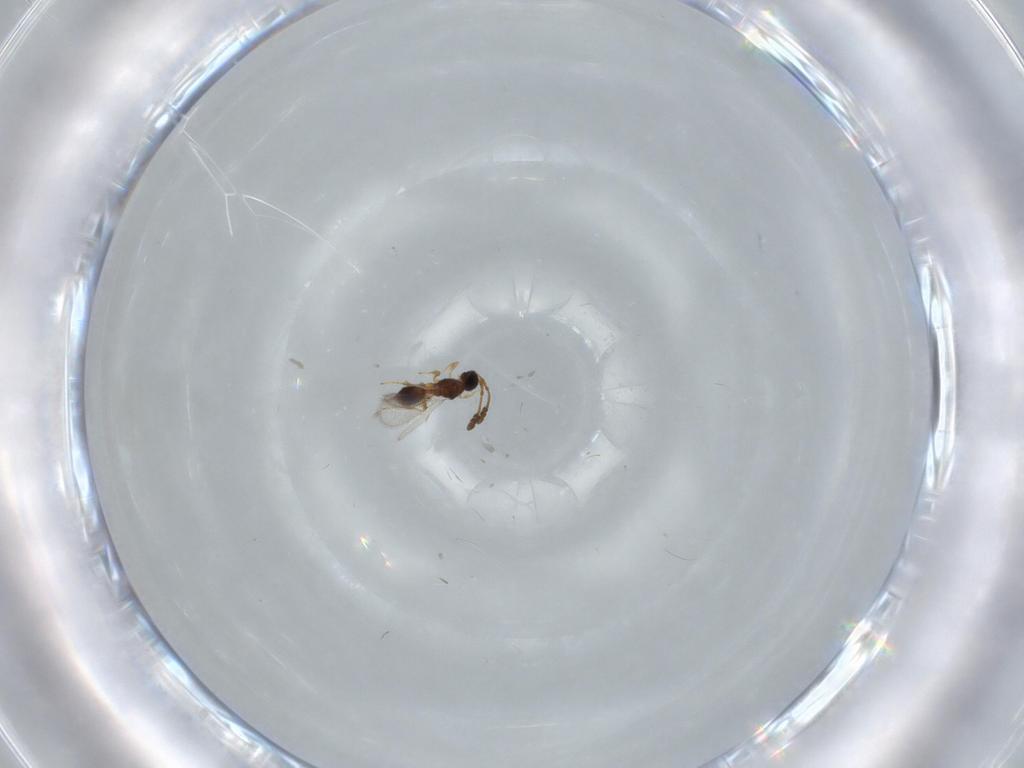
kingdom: Animalia
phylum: Arthropoda
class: Insecta
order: Hymenoptera
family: Diapriidae
